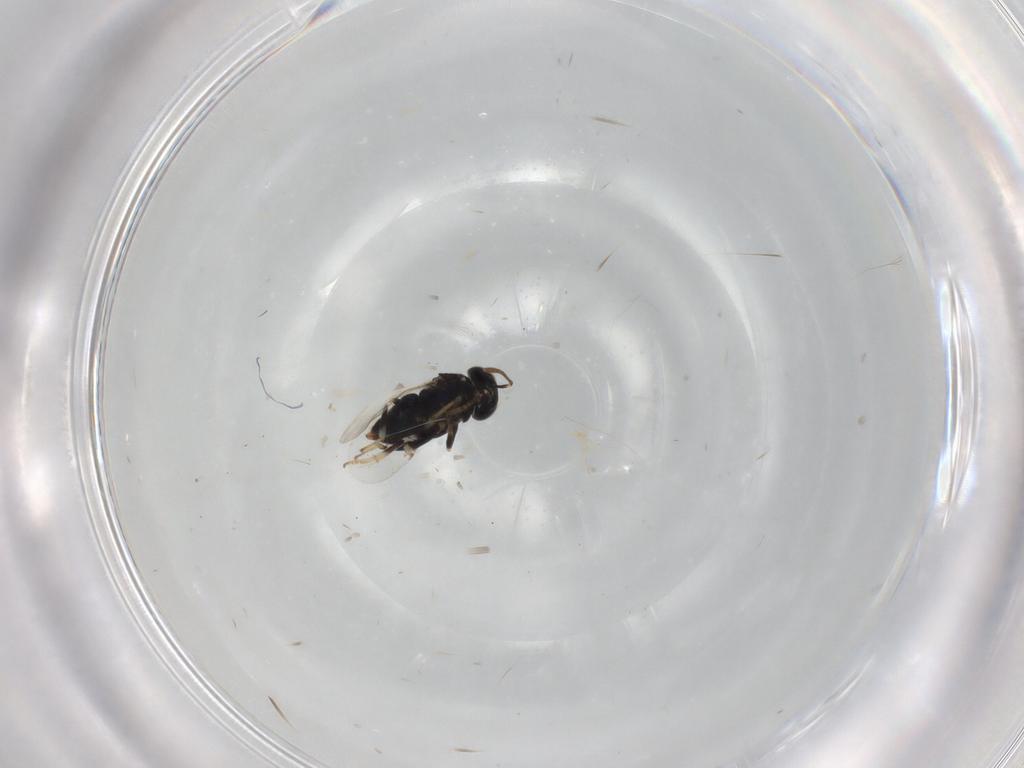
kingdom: Animalia
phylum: Arthropoda
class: Insecta
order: Hymenoptera
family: Encyrtidae
